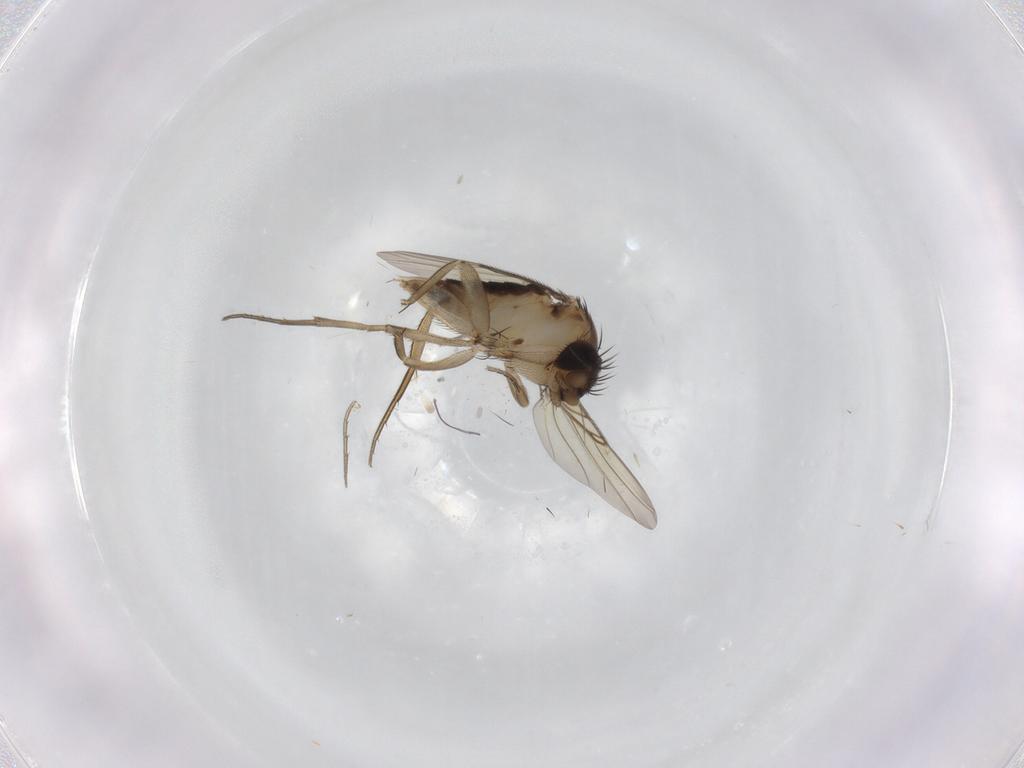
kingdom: Animalia
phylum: Arthropoda
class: Insecta
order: Diptera
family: Phoridae
